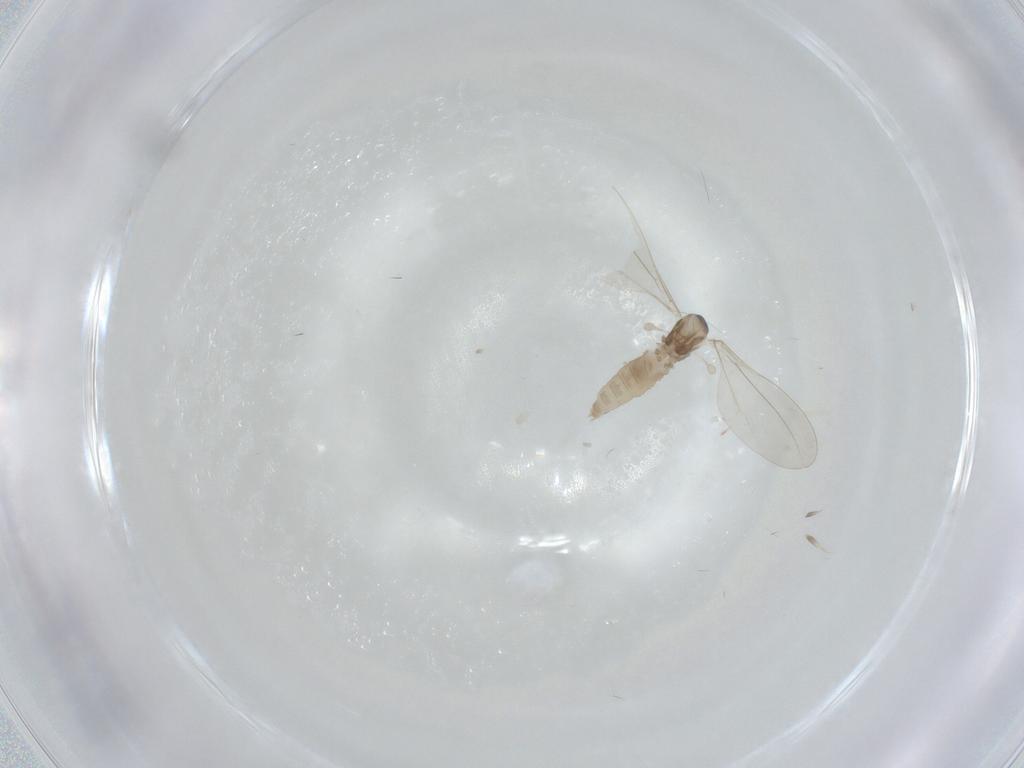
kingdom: Animalia
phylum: Arthropoda
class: Insecta
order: Diptera
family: Cecidomyiidae
